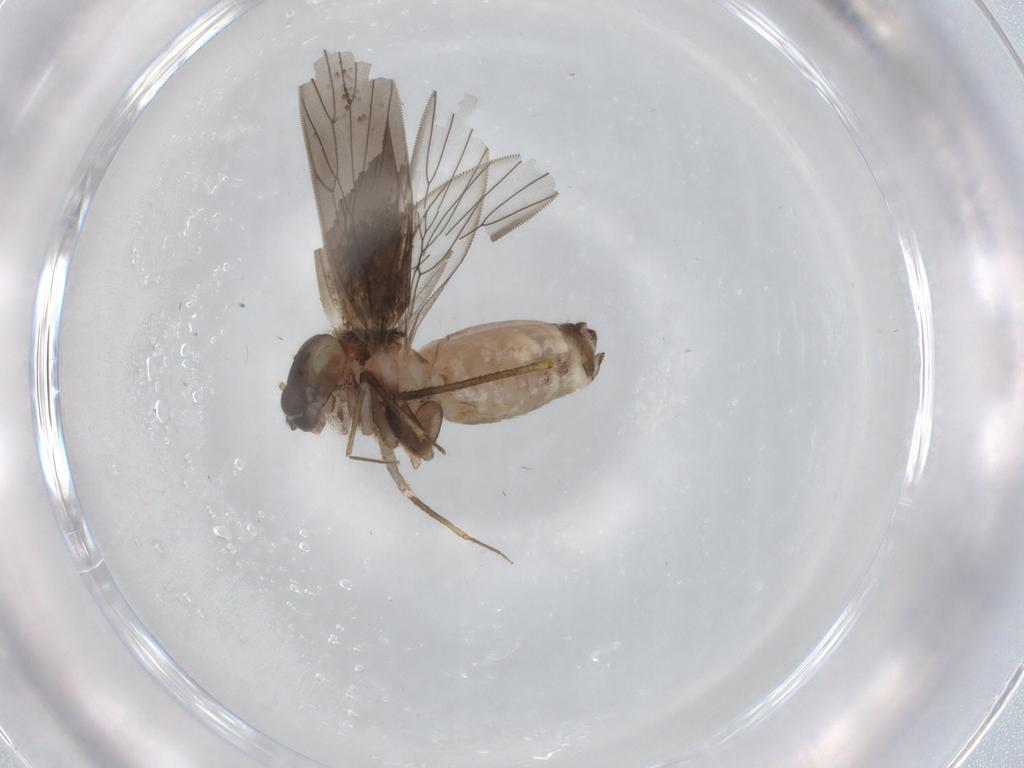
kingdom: Animalia
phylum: Arthropoda
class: Insecta
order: Psocodea
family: Lepidopsocidae
